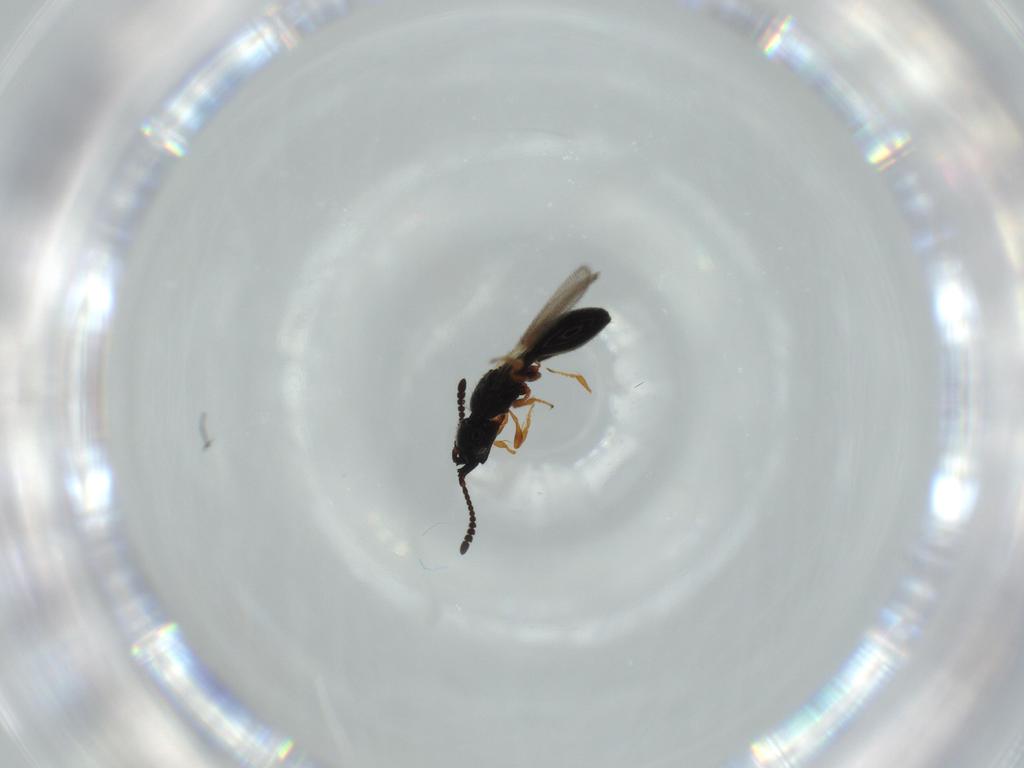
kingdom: Animalia
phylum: Arthropoda
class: Insecta
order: Hymenoptera
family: Diapriidae
